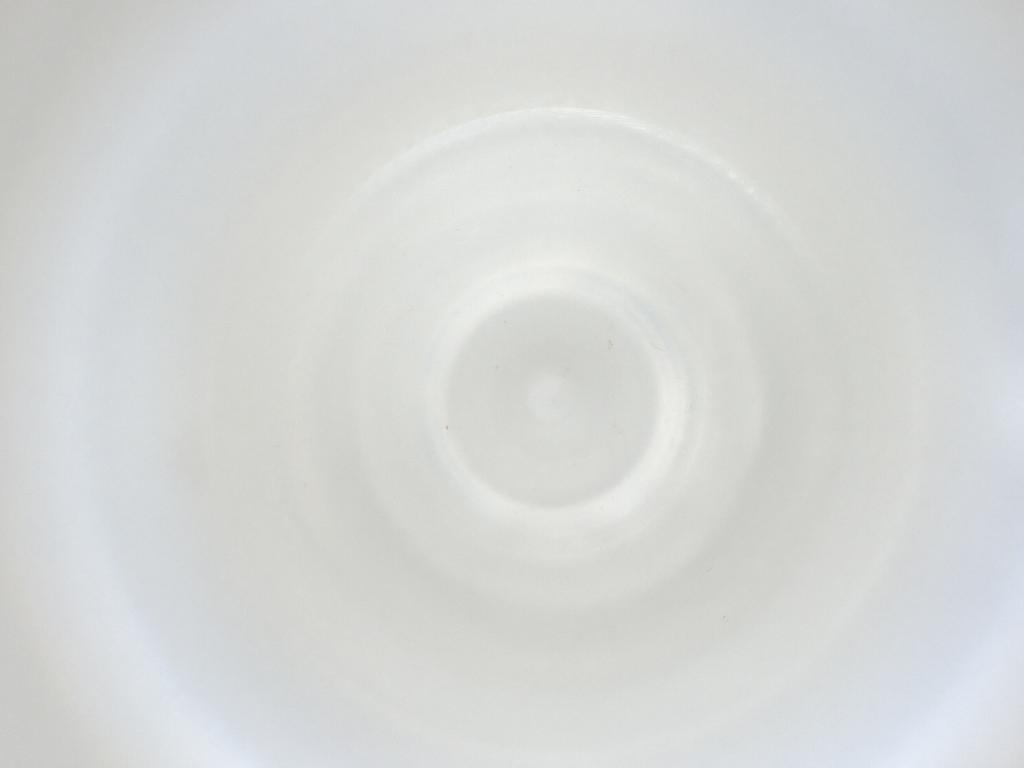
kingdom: Animalia
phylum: Arthropoda
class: Insecta
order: Diptera
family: Cecidomyiidae
